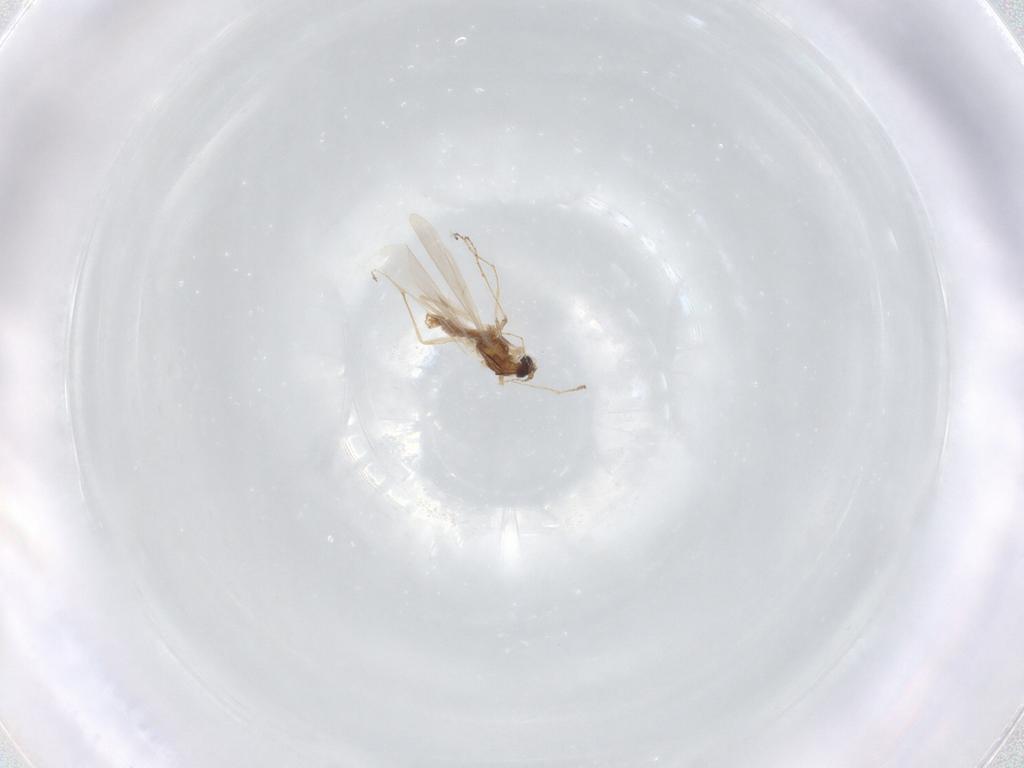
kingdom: Animalia
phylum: Arthropoda
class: Insecta
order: Diptera
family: Cecidomyiidae
